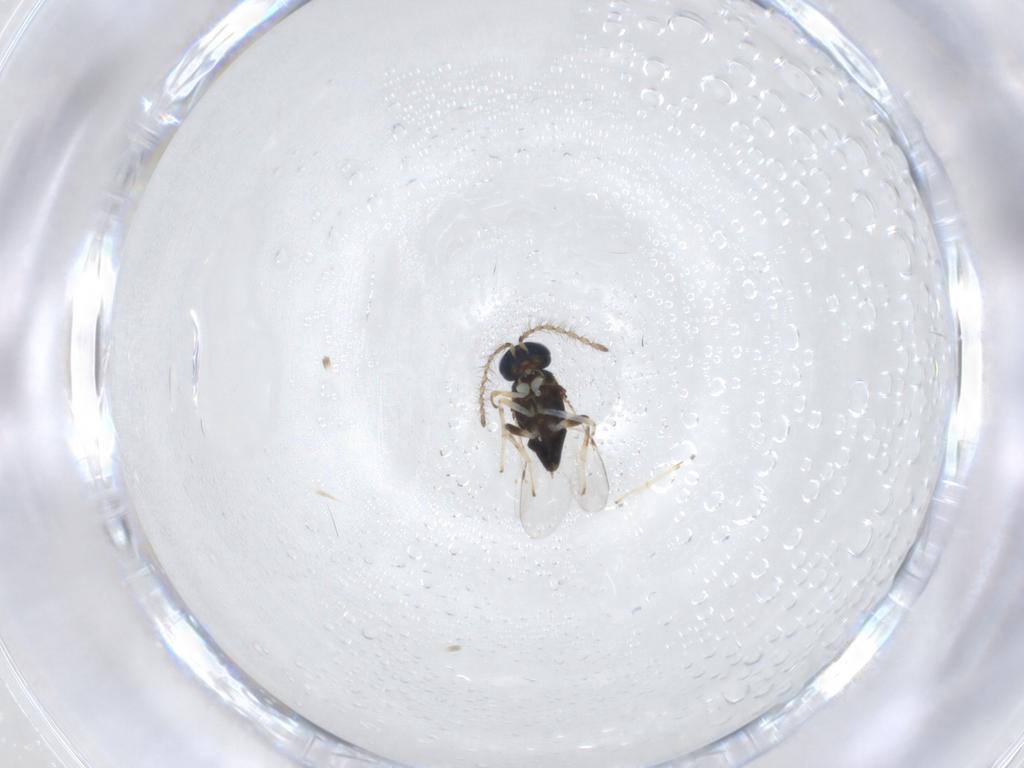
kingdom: Animalia
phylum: Arthropoda
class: Insecta
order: Hymenoptera
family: Encyrtidae
